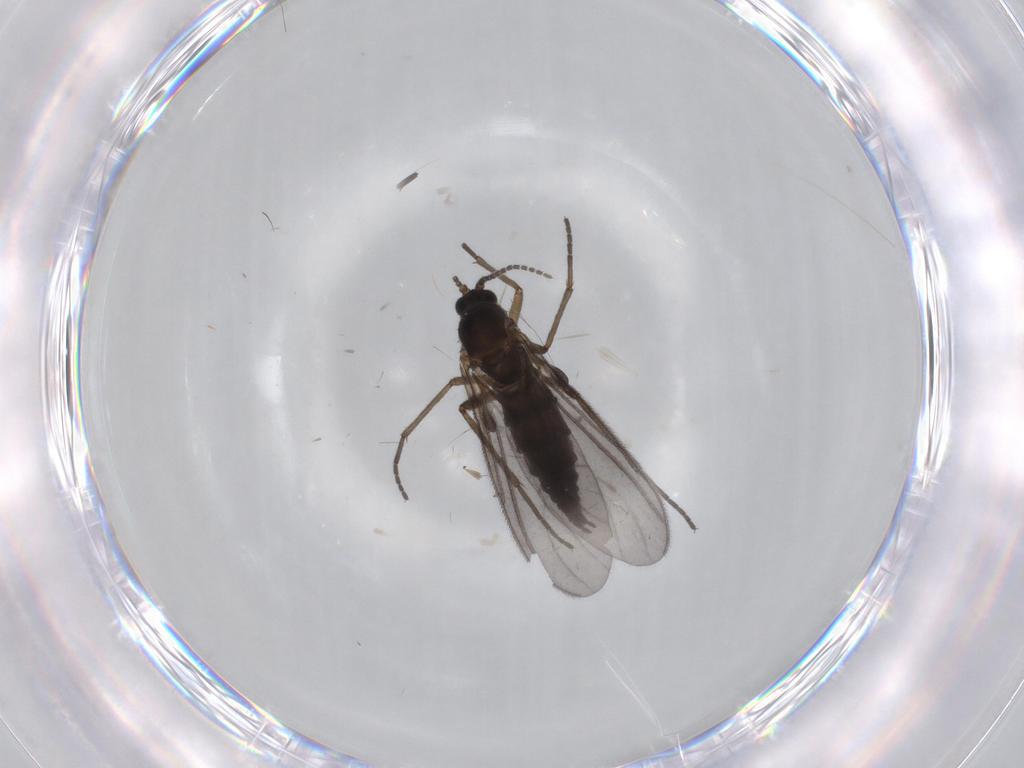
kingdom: Animalia
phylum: Arthropoda
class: Insecta
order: Diptera
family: Sciaridae
